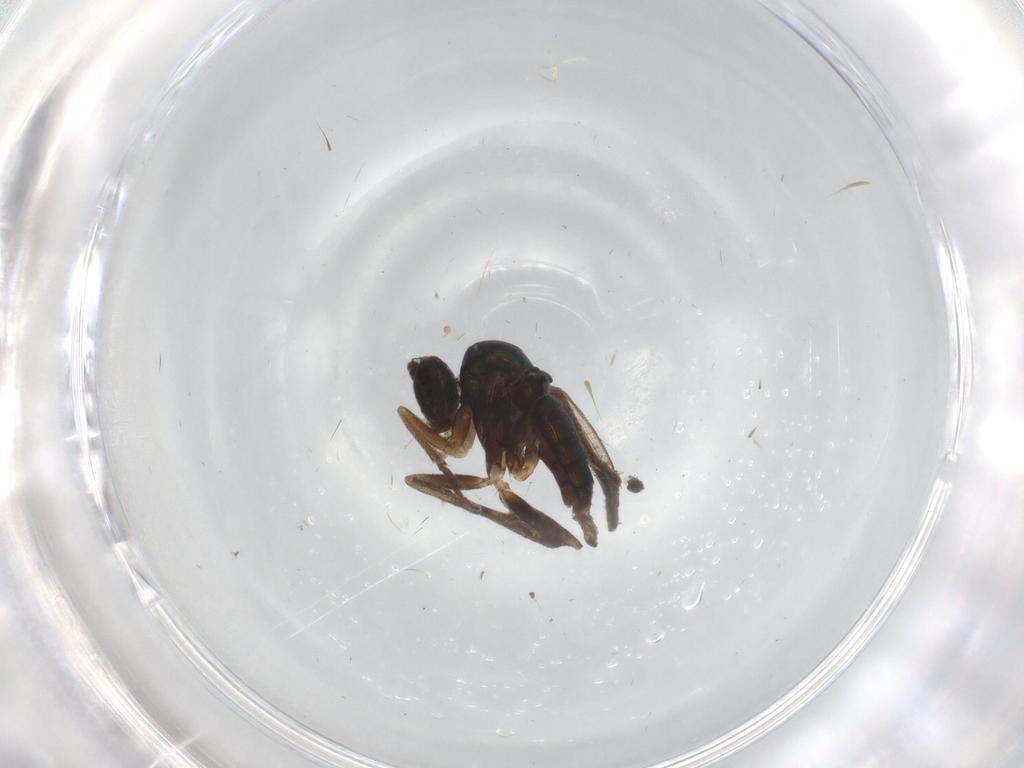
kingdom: Animalia
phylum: Arthropoda
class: Insecta
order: Diptera
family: Sciaridae
